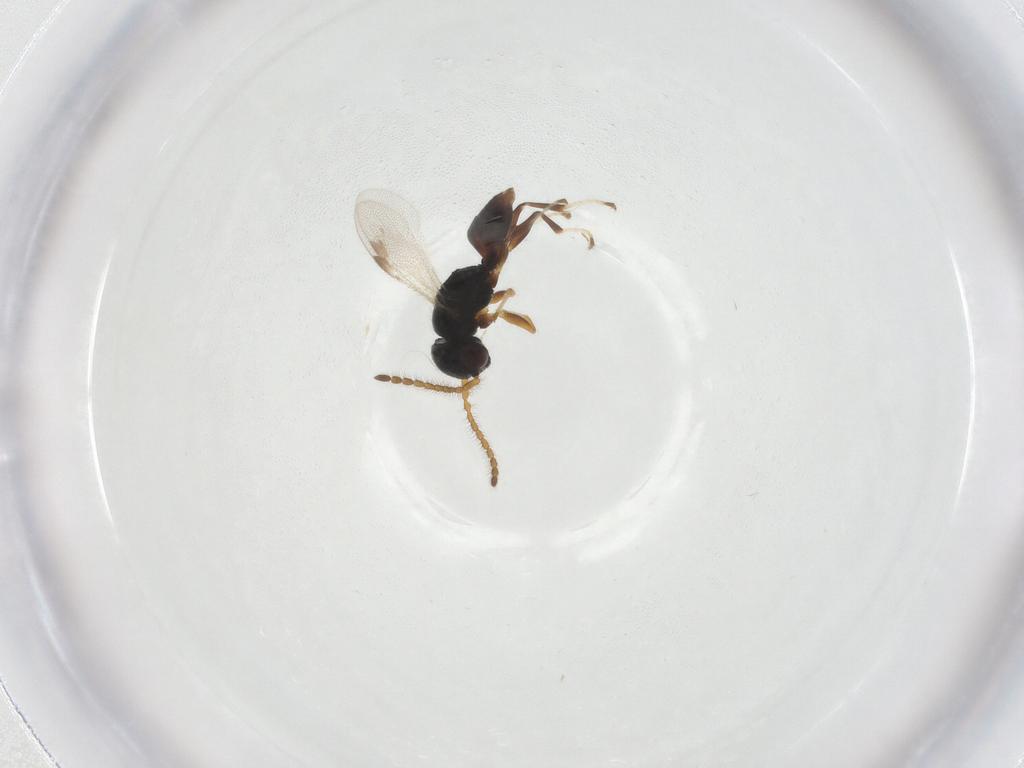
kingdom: Animalia
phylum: Arthropoda
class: Insecta
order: Hymenoptera
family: Dryinidae
